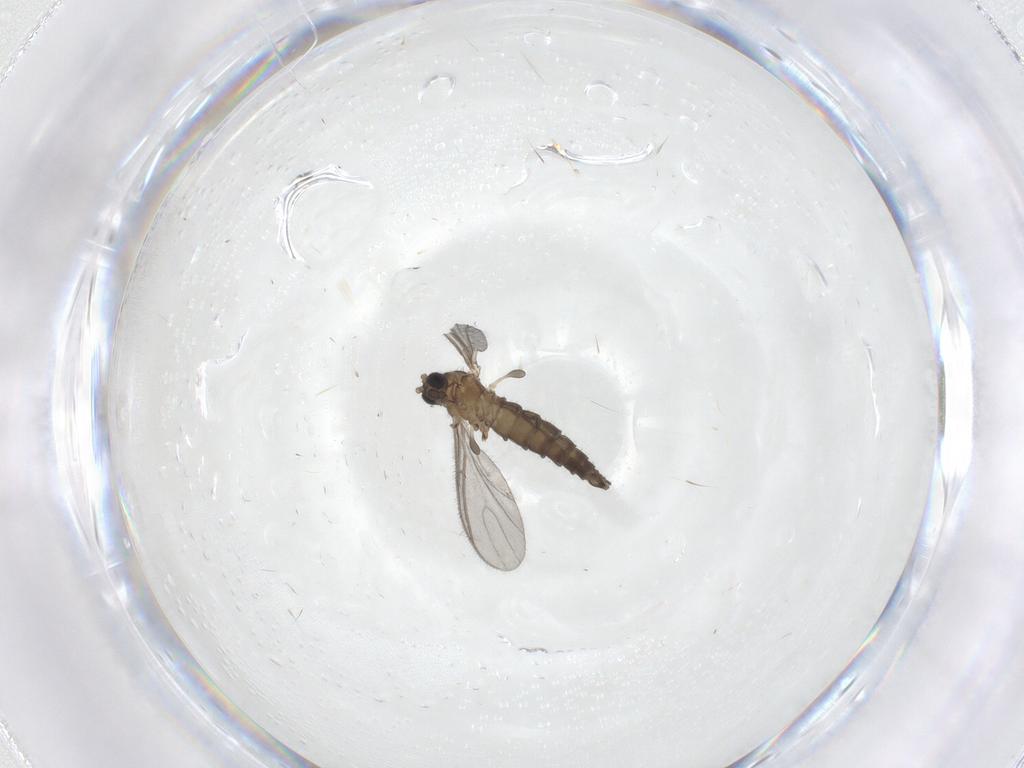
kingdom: Animalia
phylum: Arthropoda
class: Insecta
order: Diptera
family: Sciaridae
